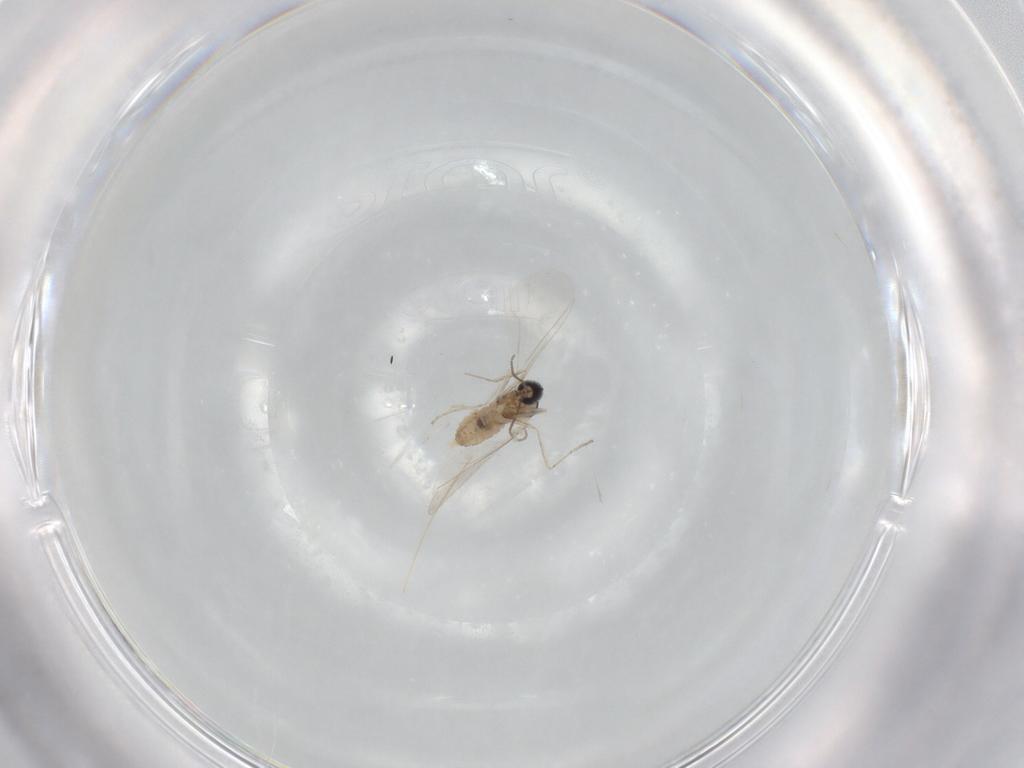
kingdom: Animalia
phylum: Arthropoda
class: Insecta
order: Diptera
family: Cecidomyiidae
